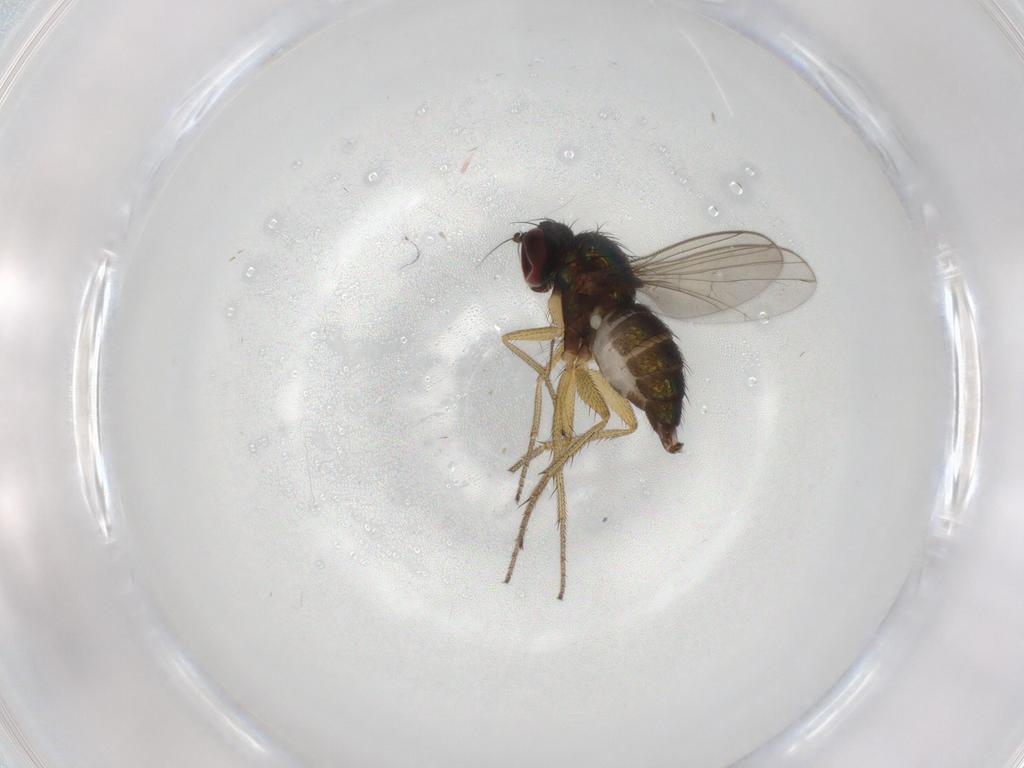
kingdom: Animalia
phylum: Arthropoda
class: Insecta
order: Diptera
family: Dolichopodidae
